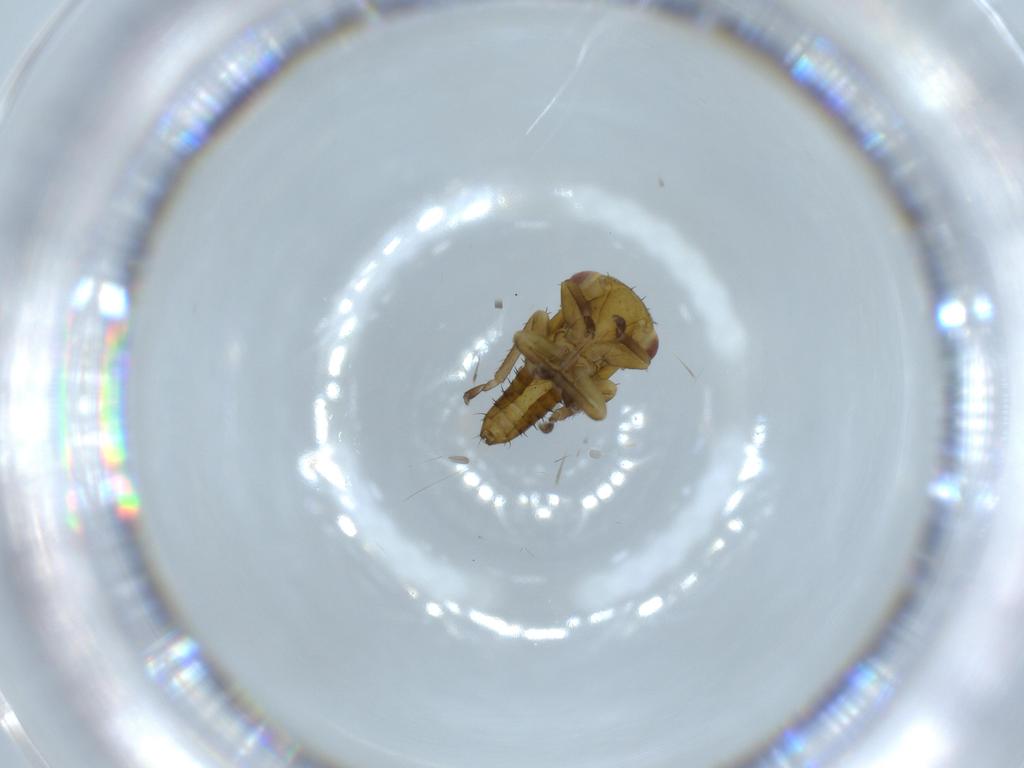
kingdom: Animalia
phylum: Arthropoda
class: Insecta
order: Hemiptera
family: Cicadellidae
